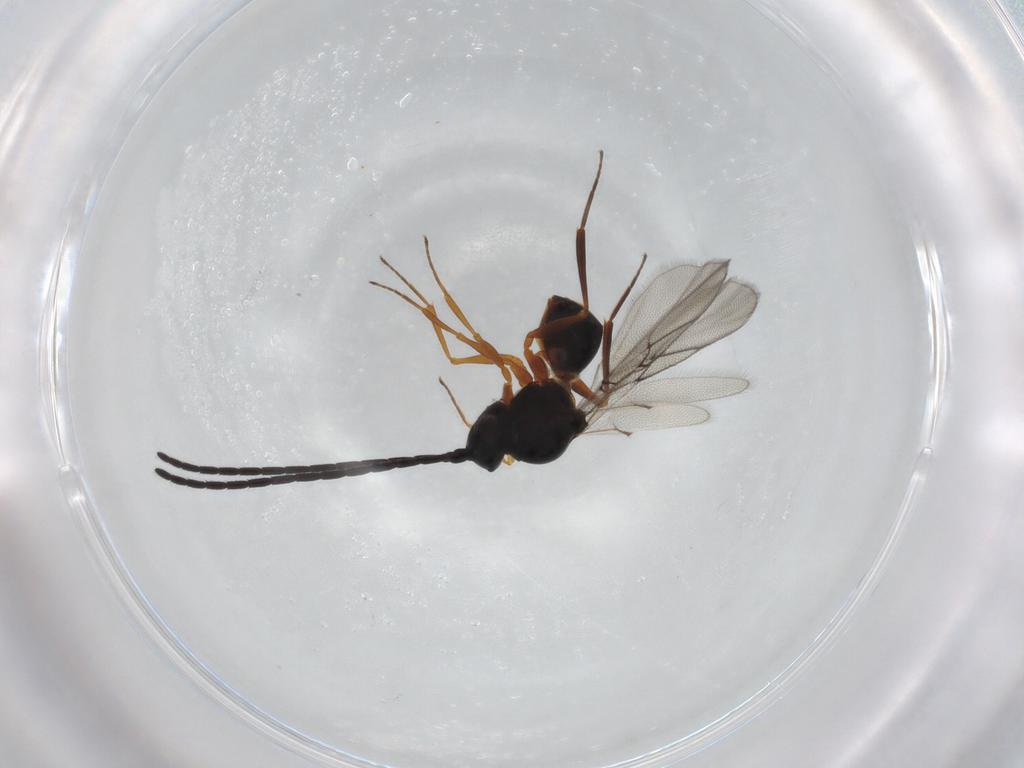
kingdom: Animalia
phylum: Arthropoda
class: Insecta
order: Hymenoptera
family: Figitidae
